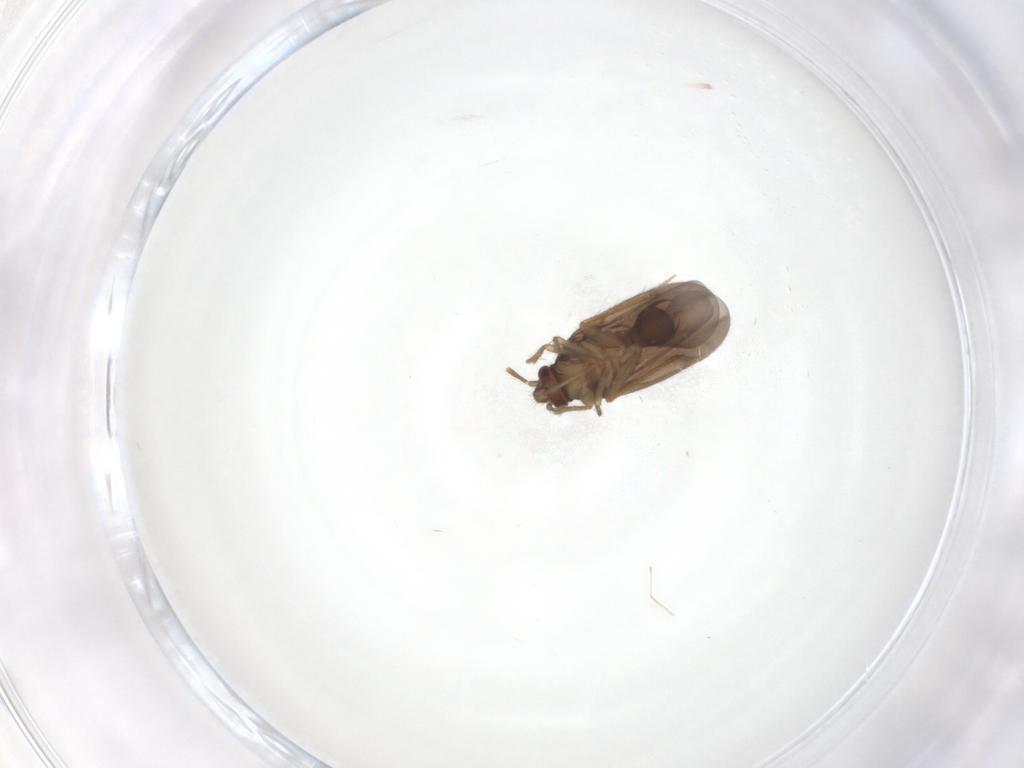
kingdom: Animalia
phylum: Arthropoda
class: Insecta
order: Hemiptera
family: Ceratocombidae
